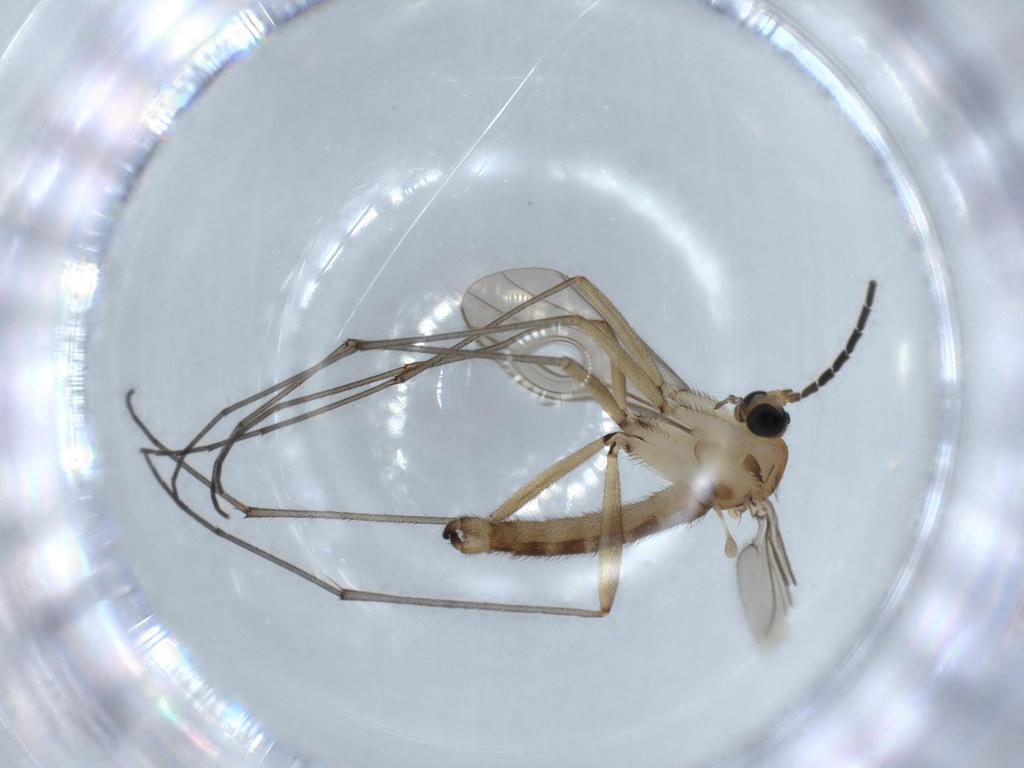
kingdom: Animalia
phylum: Arthropoda
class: Insecta
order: Diptera
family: Sciaridae
